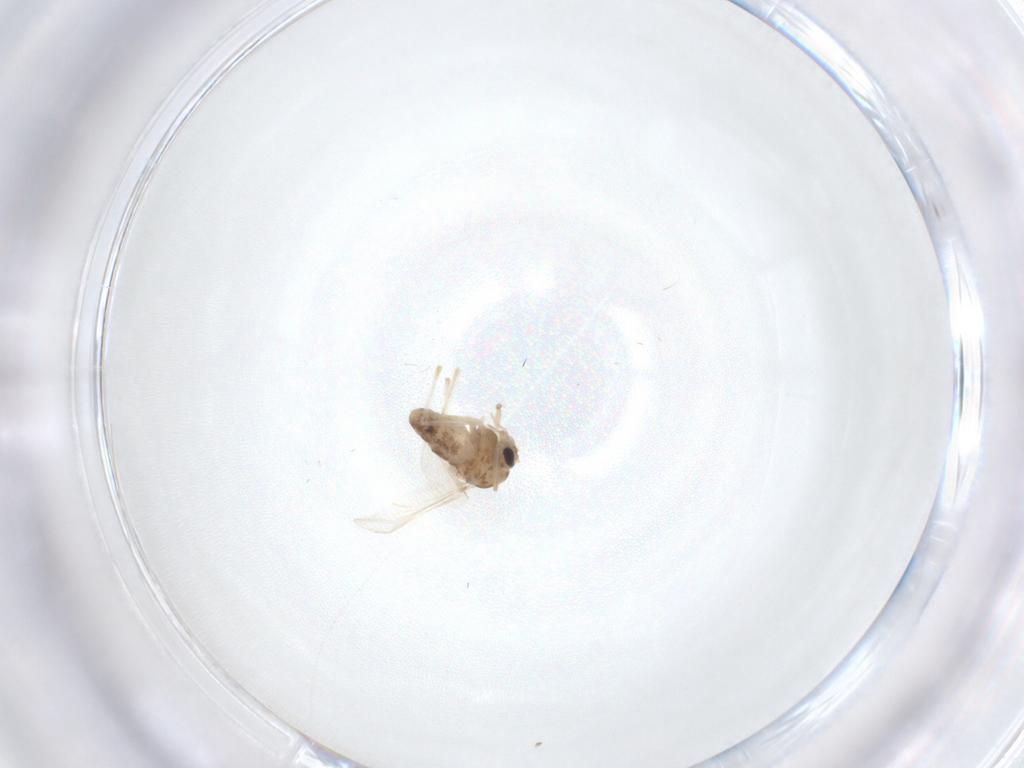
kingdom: Animalia
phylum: Arthropoda
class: Insecta
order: Diptera
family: Chironomidae
